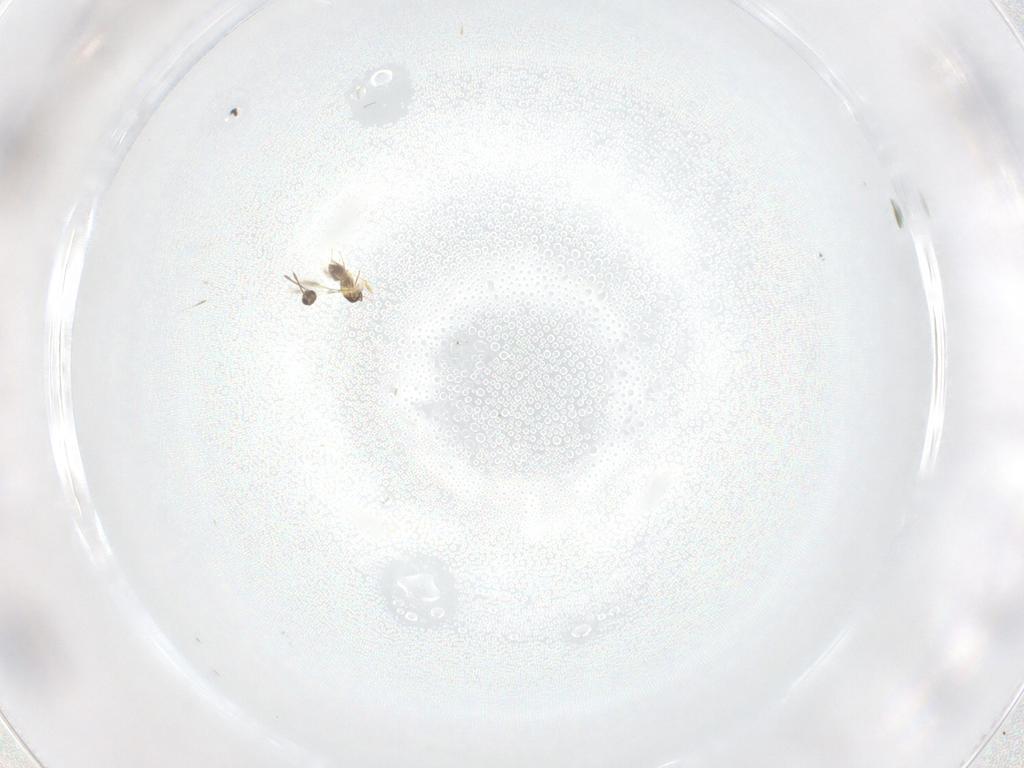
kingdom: Animalia
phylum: Arthropoda
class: Insecta
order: Hymenoptera
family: Mymaridae
